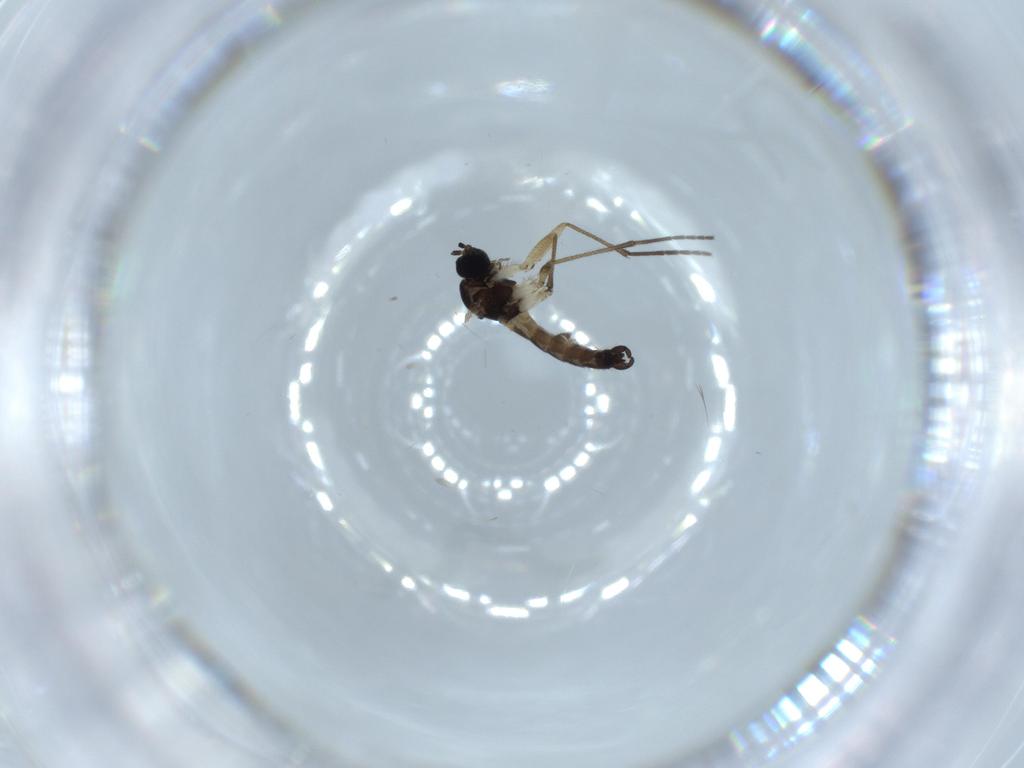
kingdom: Animalia
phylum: Arthropoda
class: Insecta
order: Diptera
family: Sciaridae
